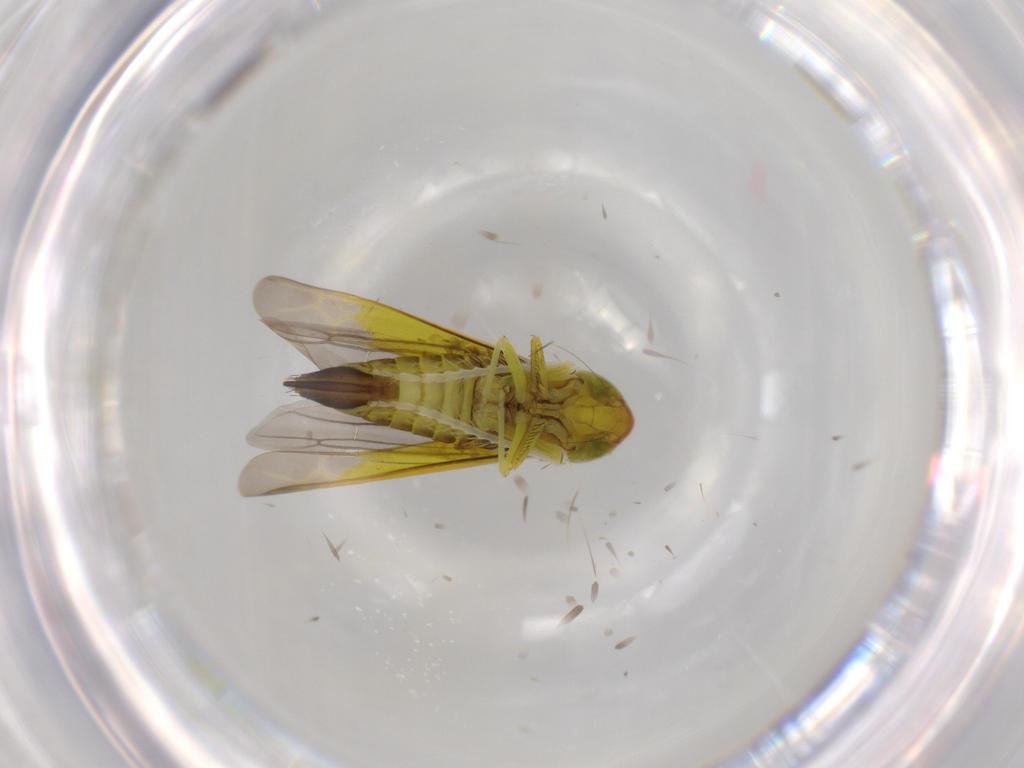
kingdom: Animalia
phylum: Arthropoda
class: Insecta
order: Hemiptera
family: Cicadellidae
